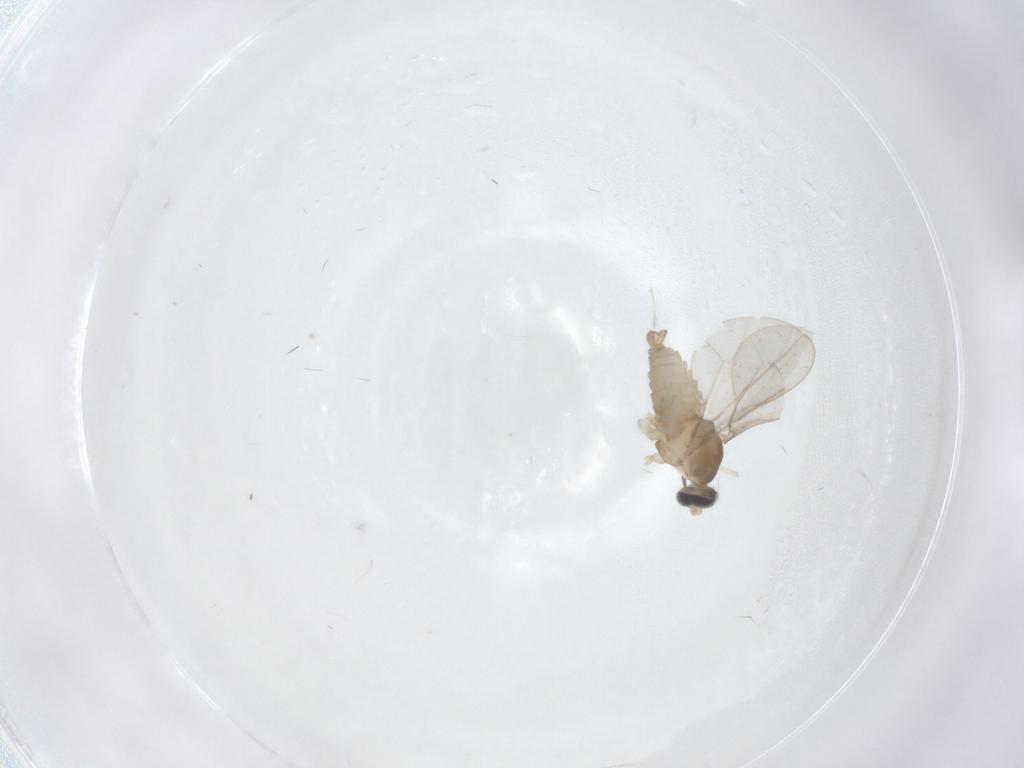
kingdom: Animalia
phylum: Arthropoda
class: Insecta
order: Diptera
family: Cecidomyiidae
